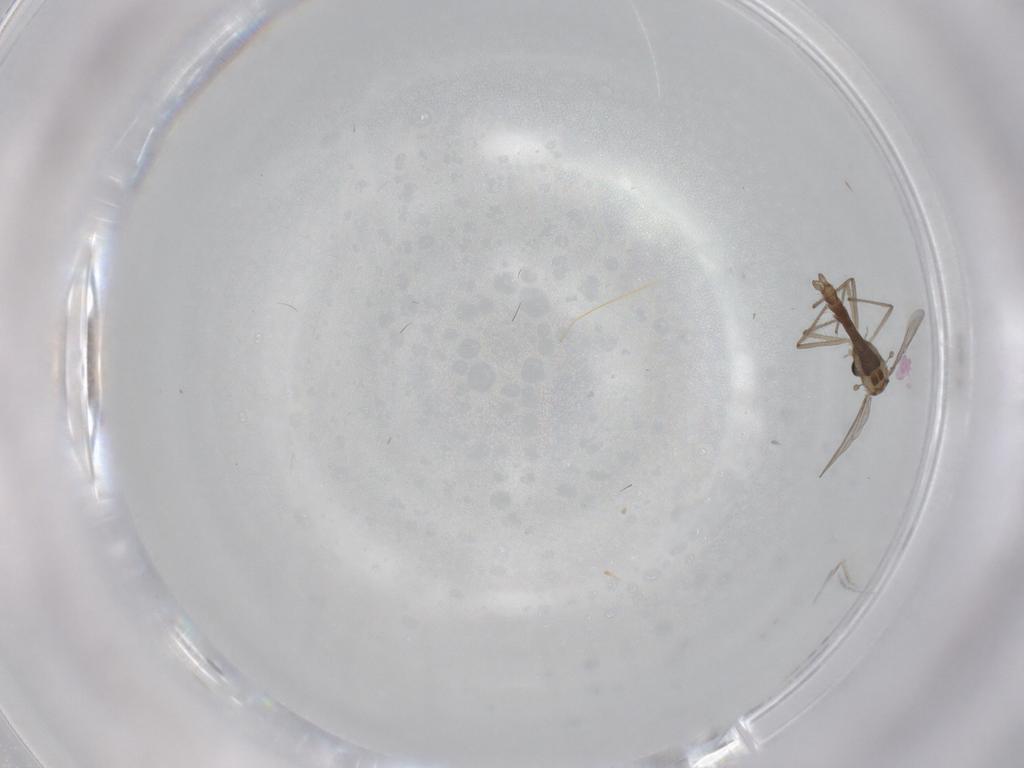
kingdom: Animalia
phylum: Arthropoda
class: Insecta
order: Diptera
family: Chironomidae
